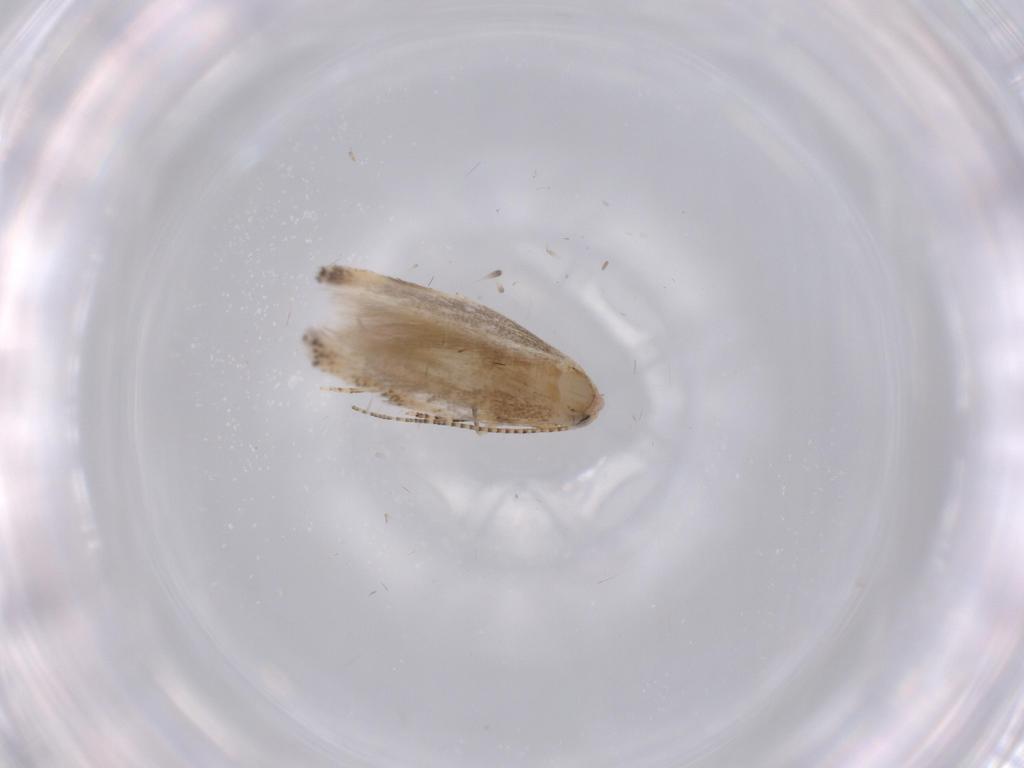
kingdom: Animalia
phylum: Arthropoda
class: Insecta
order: Lepidoptera
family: Bucculatricidae
